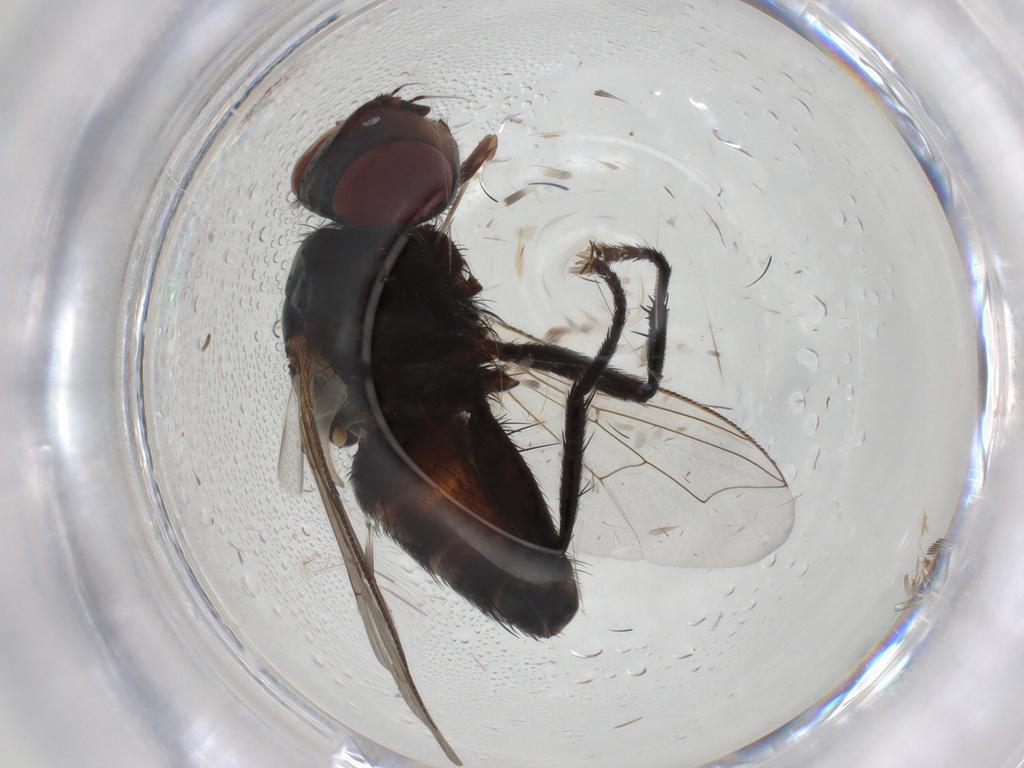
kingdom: Animalia
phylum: Arthropoda
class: Insecta
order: Diptera
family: Sarcophagidae
